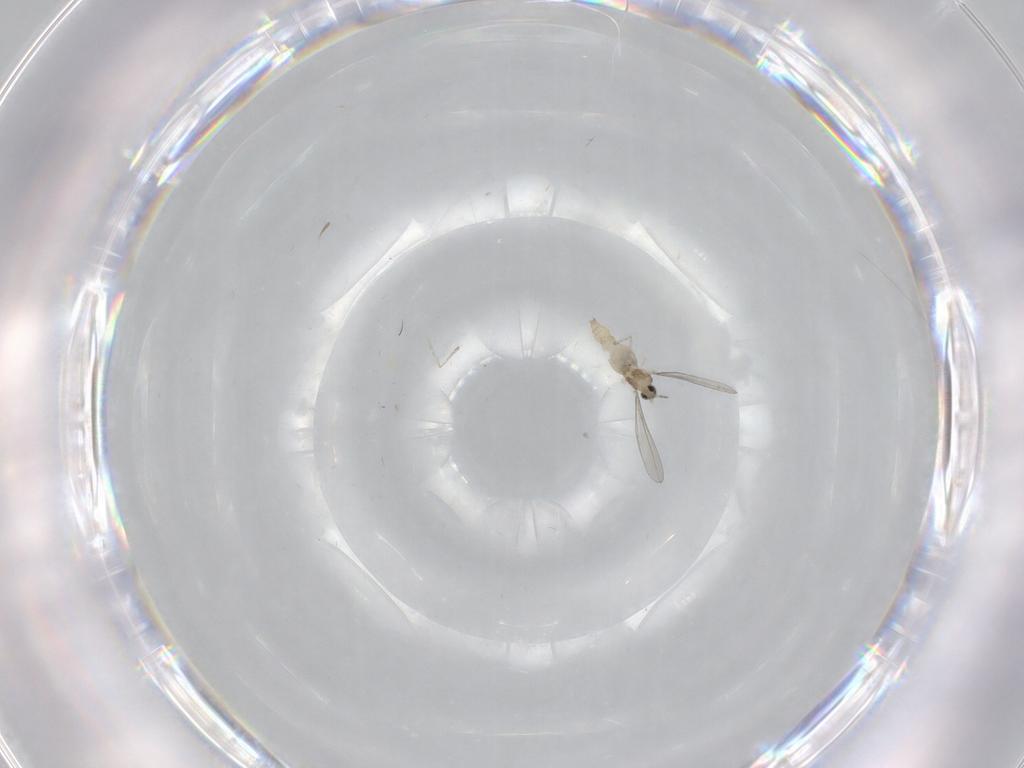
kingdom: Animalia
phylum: Arthropoda
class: Insecta
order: Diptera
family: Cecidomyiidae
